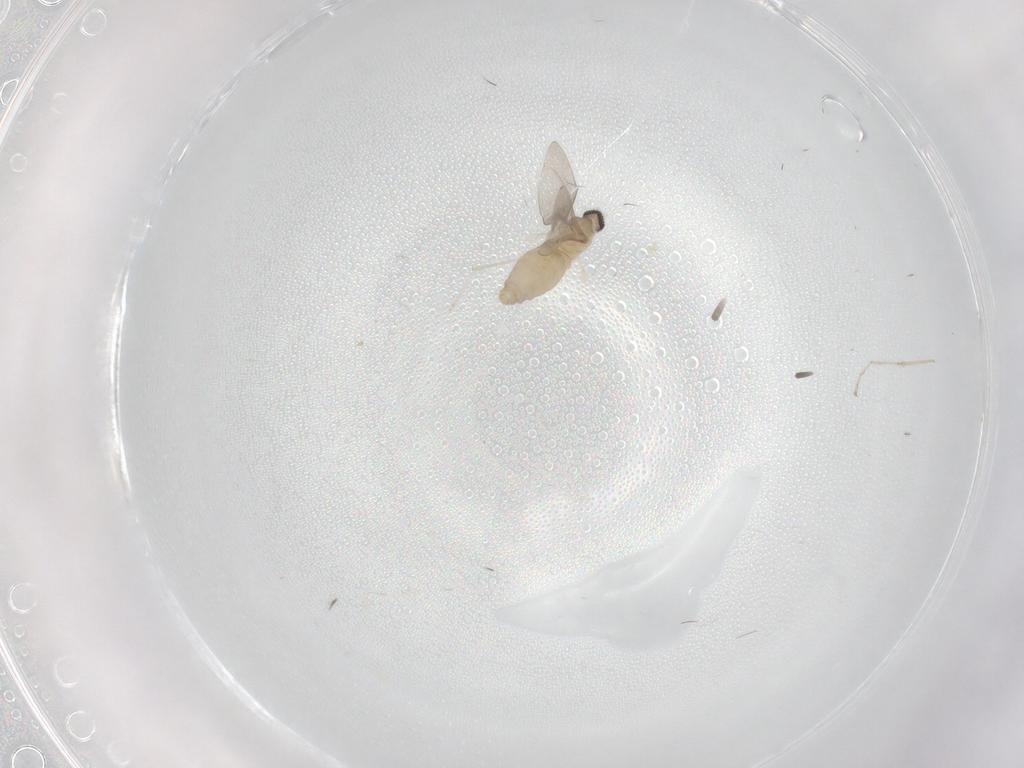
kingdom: Animalia
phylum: Arthropoda
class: Insecta
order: Diptera
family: Cecidomyiidae
